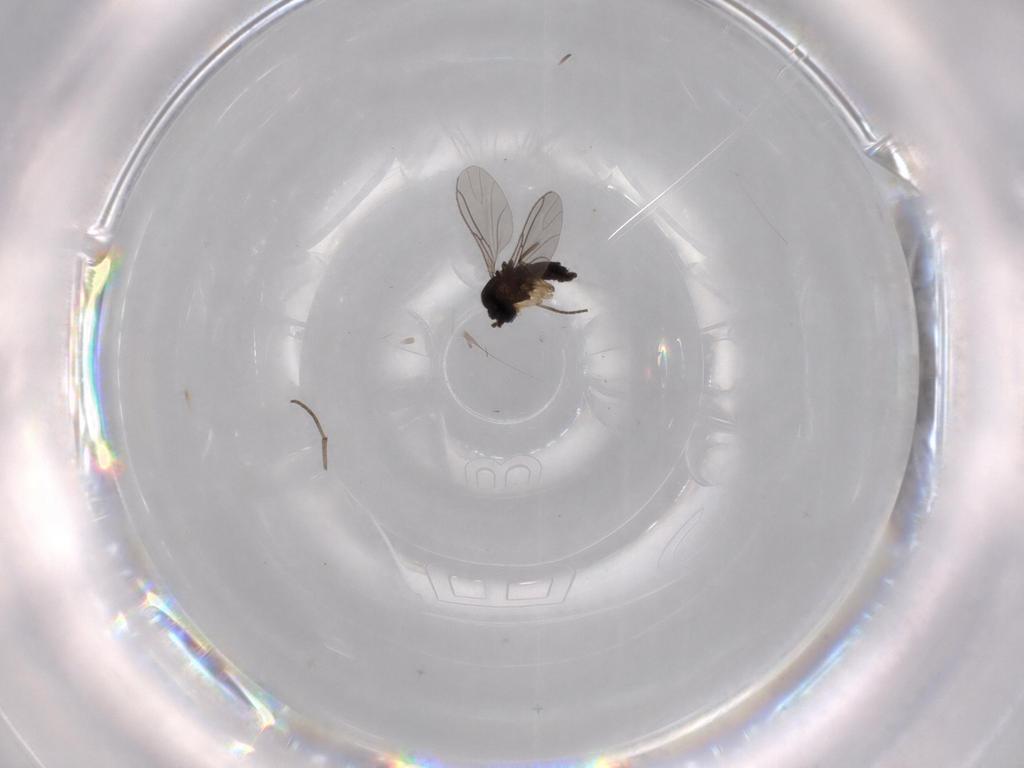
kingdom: Animalia
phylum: Arthropoda
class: Insecta
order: Diptera
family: Sciaridae
